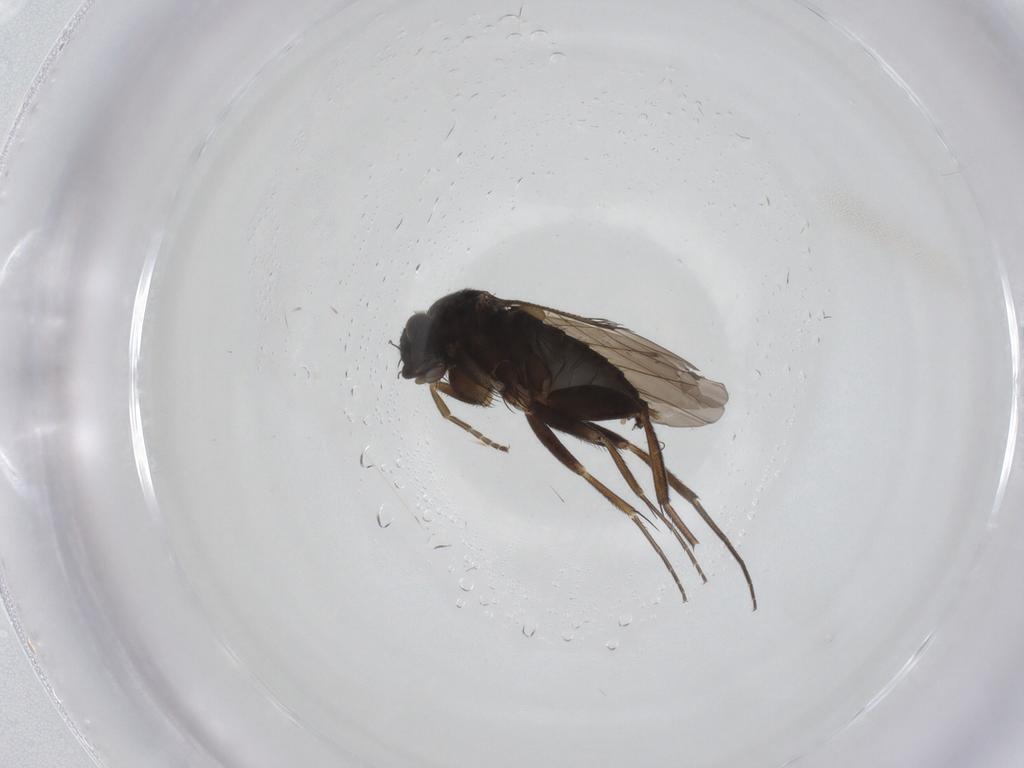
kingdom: Animalia
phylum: Arthropoda
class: Insecta
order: Diptera
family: Phoridae
